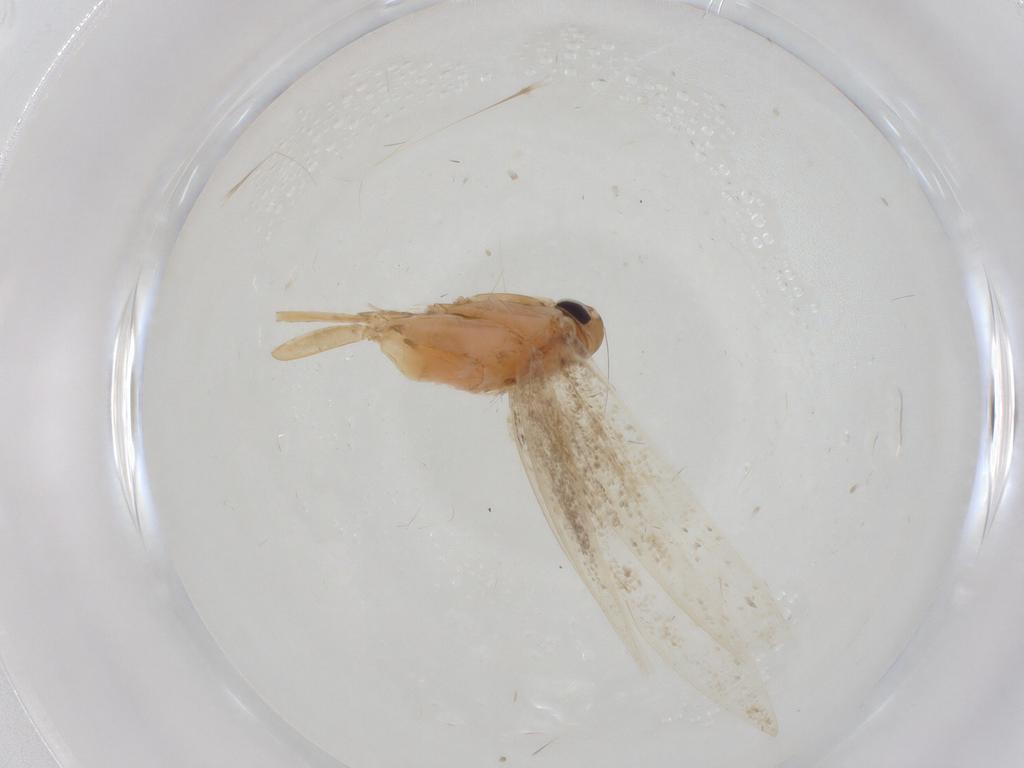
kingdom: Animalia
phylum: Arthropoda
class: Insecta
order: Lepidoptera
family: Erebidae
